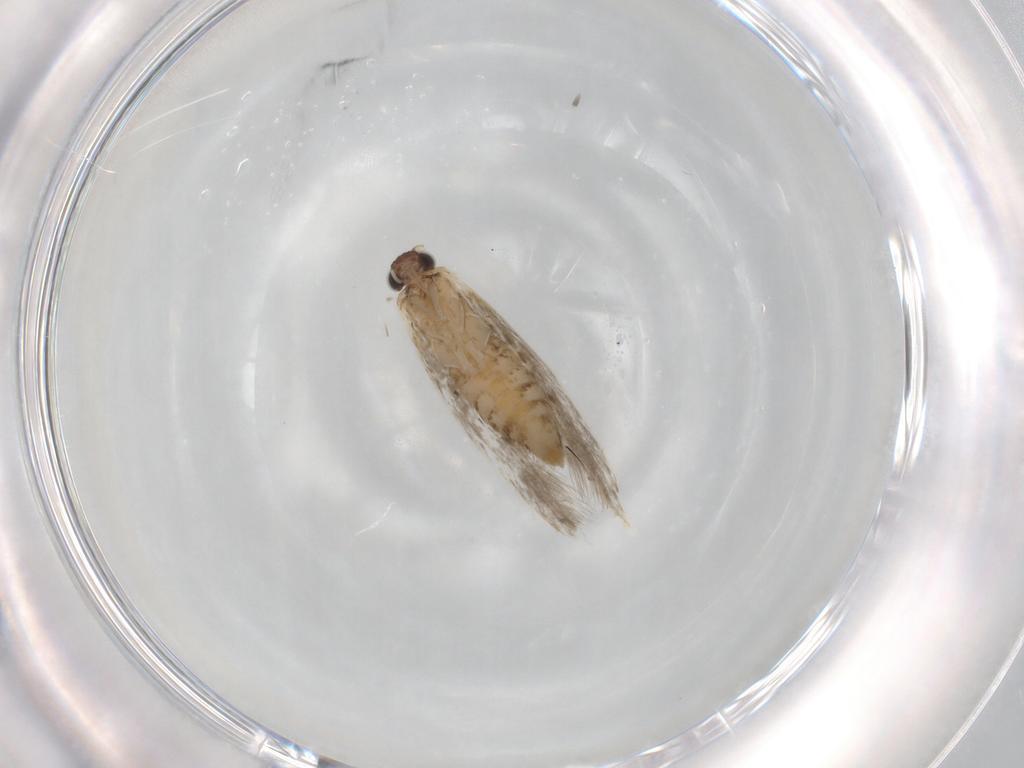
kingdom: Animalia
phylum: Arthropoda
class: Insecta
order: Lepidoptera
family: Tineidae
